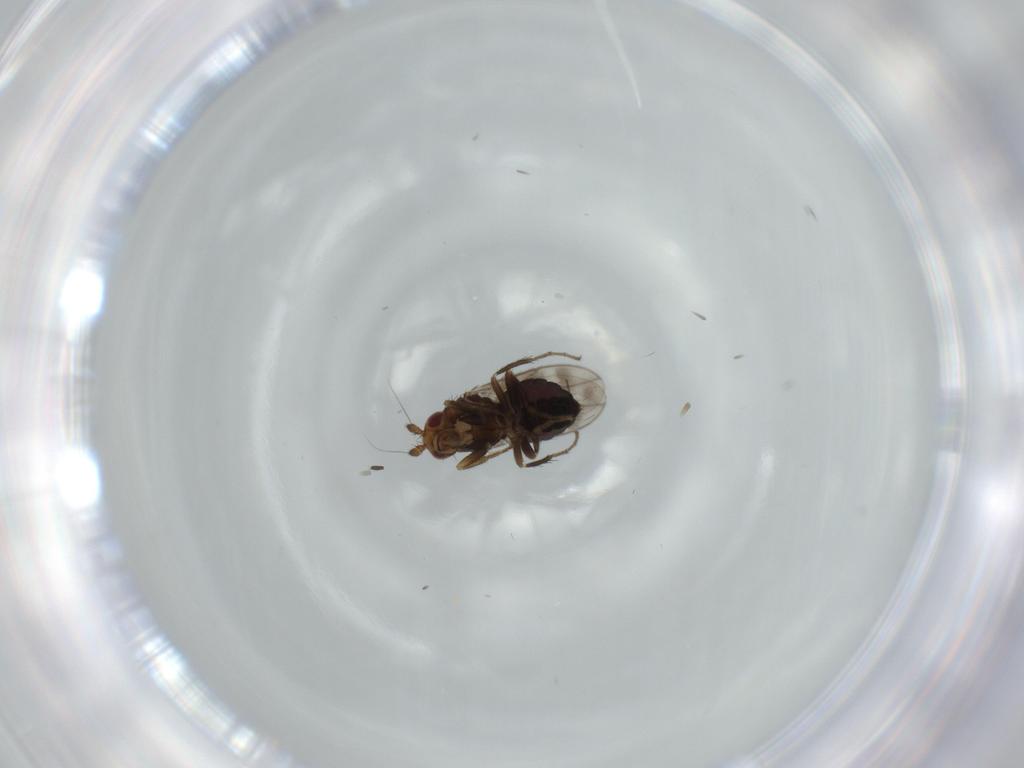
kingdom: Animalia
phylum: Arthropoda
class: Insecta
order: Diptera
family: Sphaeroceridae
